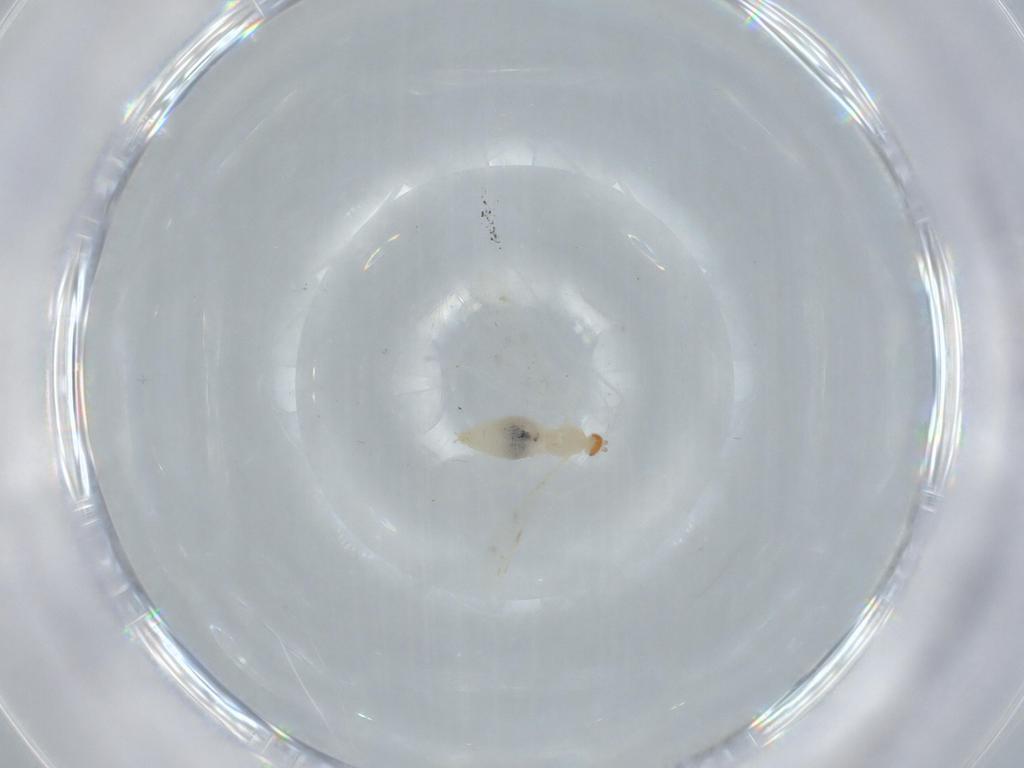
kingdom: Animalia
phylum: Arthropoda
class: Insecta
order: Diptera
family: Cecidomyiidae
